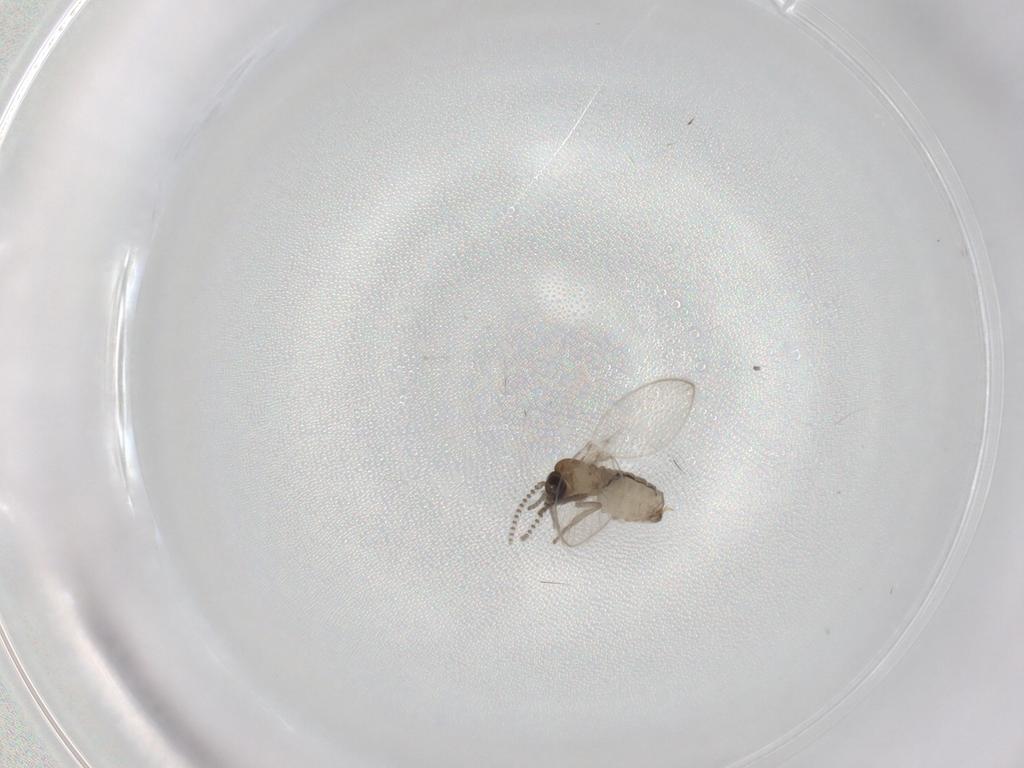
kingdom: Animalia
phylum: Arthropoda
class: Insecta
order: Diptera
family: Psychodidae
